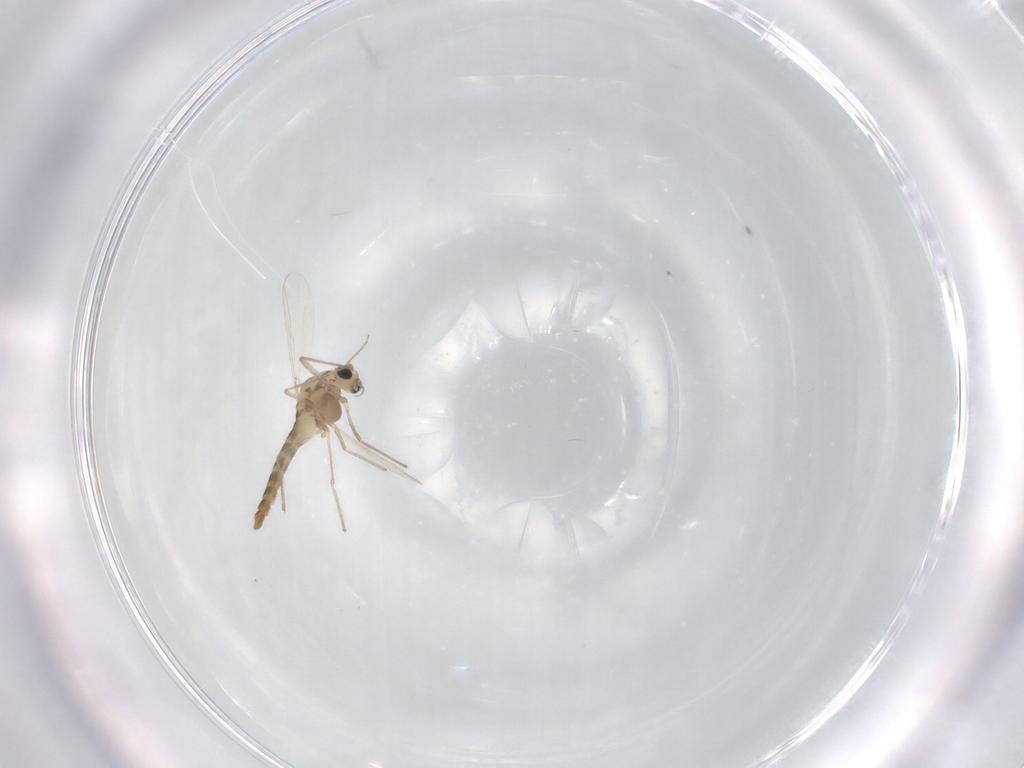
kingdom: Animalia
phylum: Arthropoda
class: Insecta
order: Diptera
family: Chironomidae
